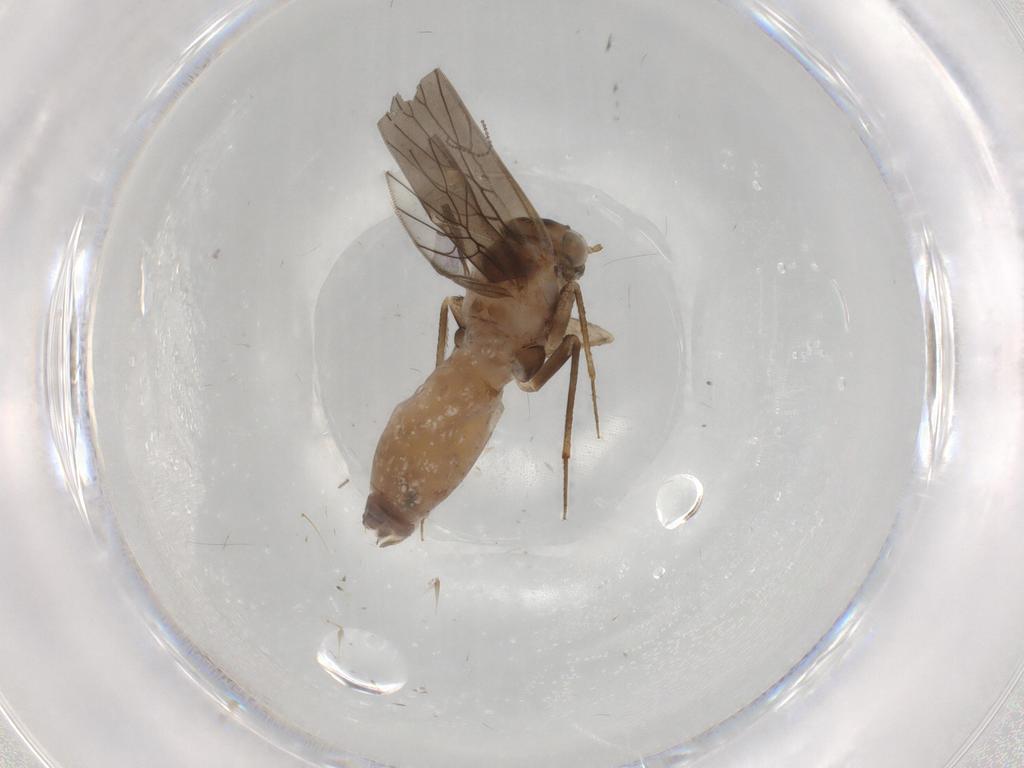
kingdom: Animalia
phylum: Arthropoda
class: Insecta
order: Psocodea
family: Lepidopsocidae
